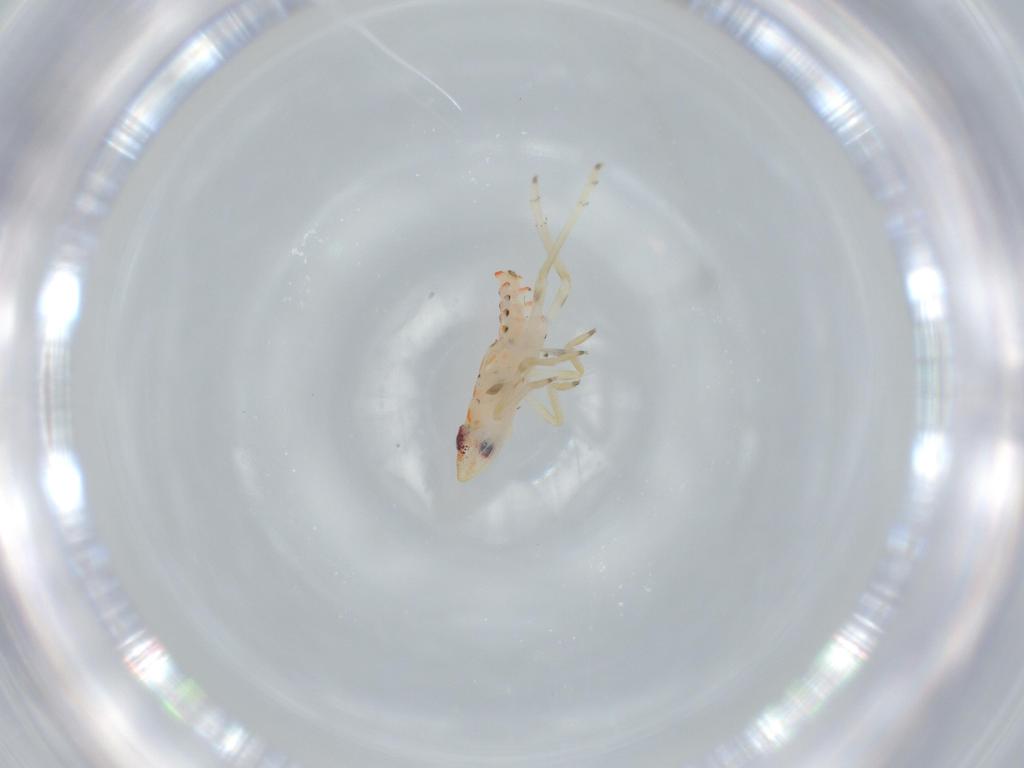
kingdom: Animalia
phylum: Arthropoda
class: Insecta
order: Hemiptera
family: Tropiduchidae
